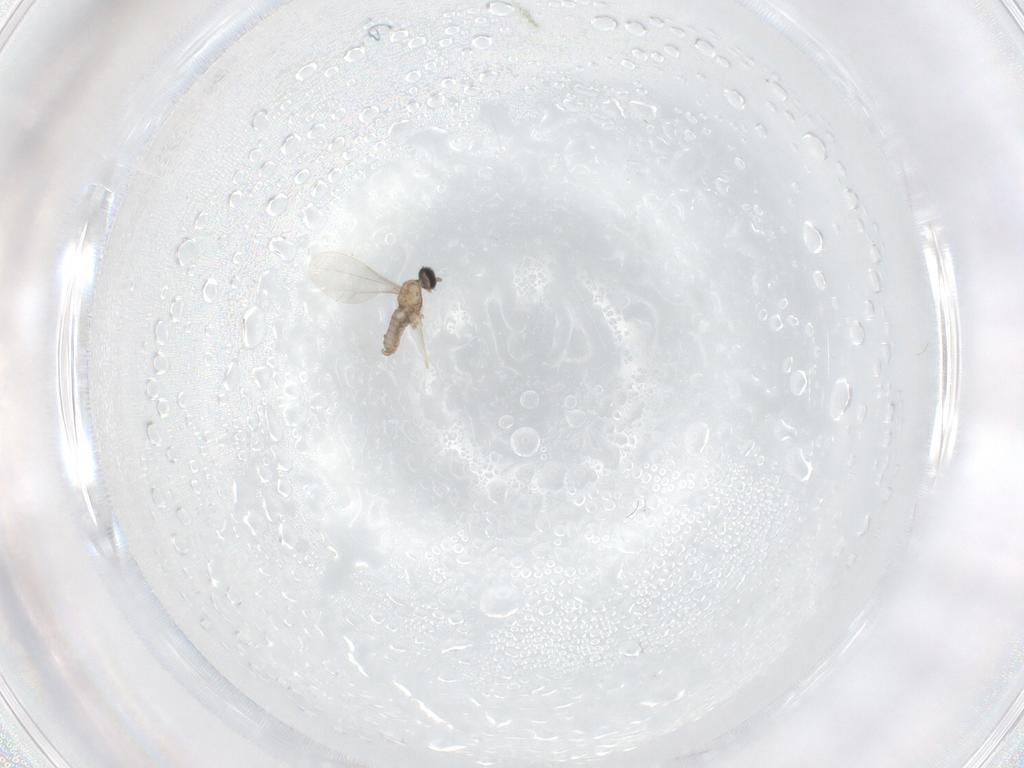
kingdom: Animalia
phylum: Arthropoda
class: Insecta
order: Diptera
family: Cecidomyiidae
